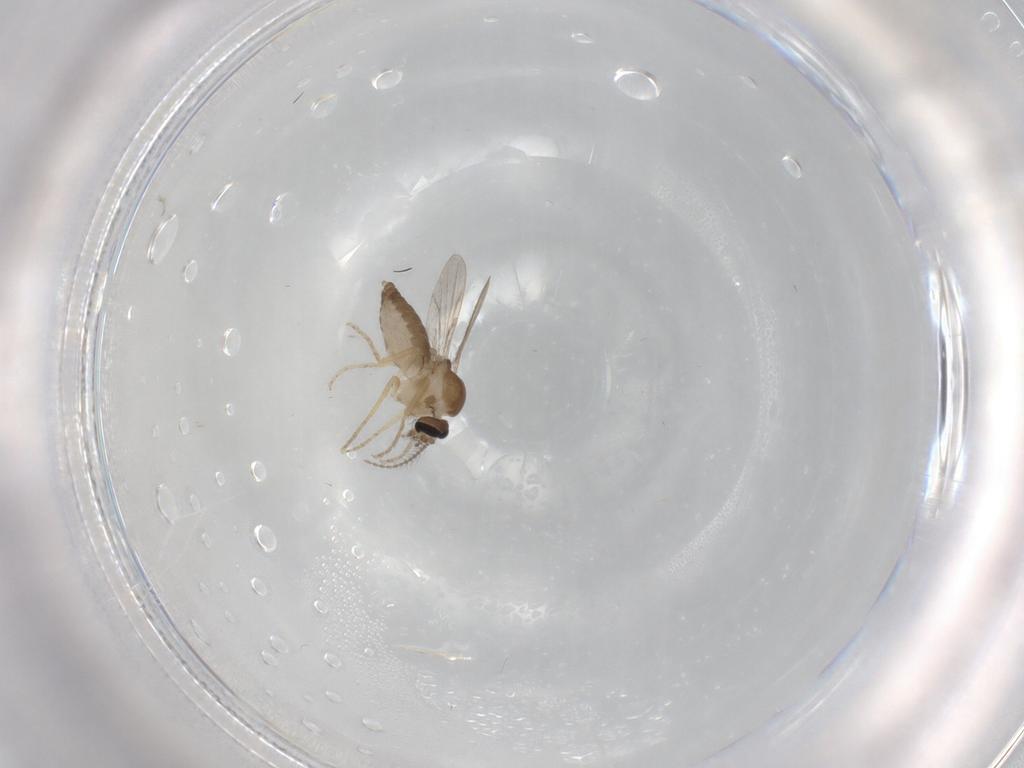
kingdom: Animalia
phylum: Arthropoda
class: Insecta
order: Diptera
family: Ceratopogonidae
